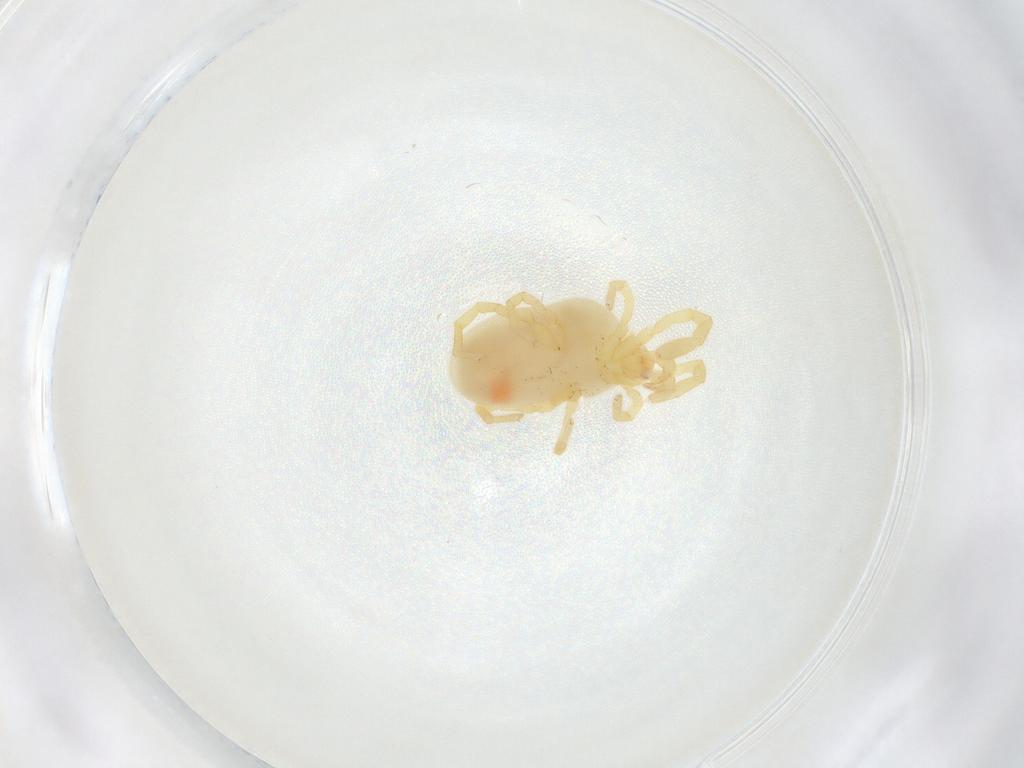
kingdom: Animalia
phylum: Arthropoda
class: Arachnida
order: Trombidiformes
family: Podothrombiidae
